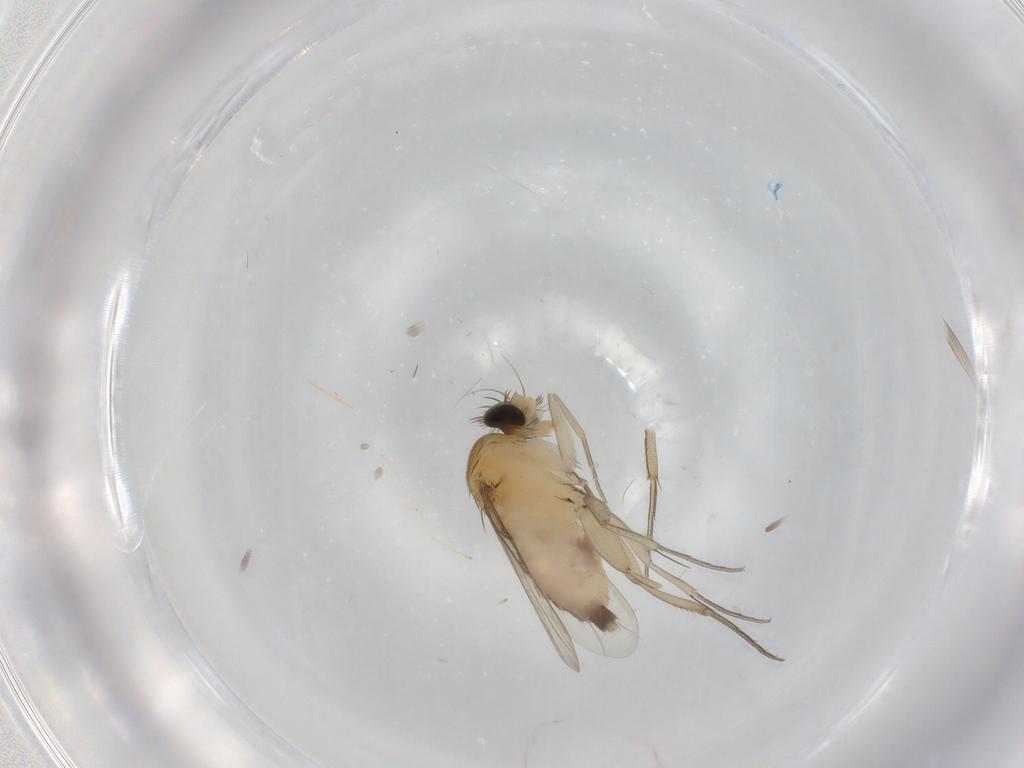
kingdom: Animalia
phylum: Arthropoda
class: Insecta
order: Diptera
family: Phoridae
